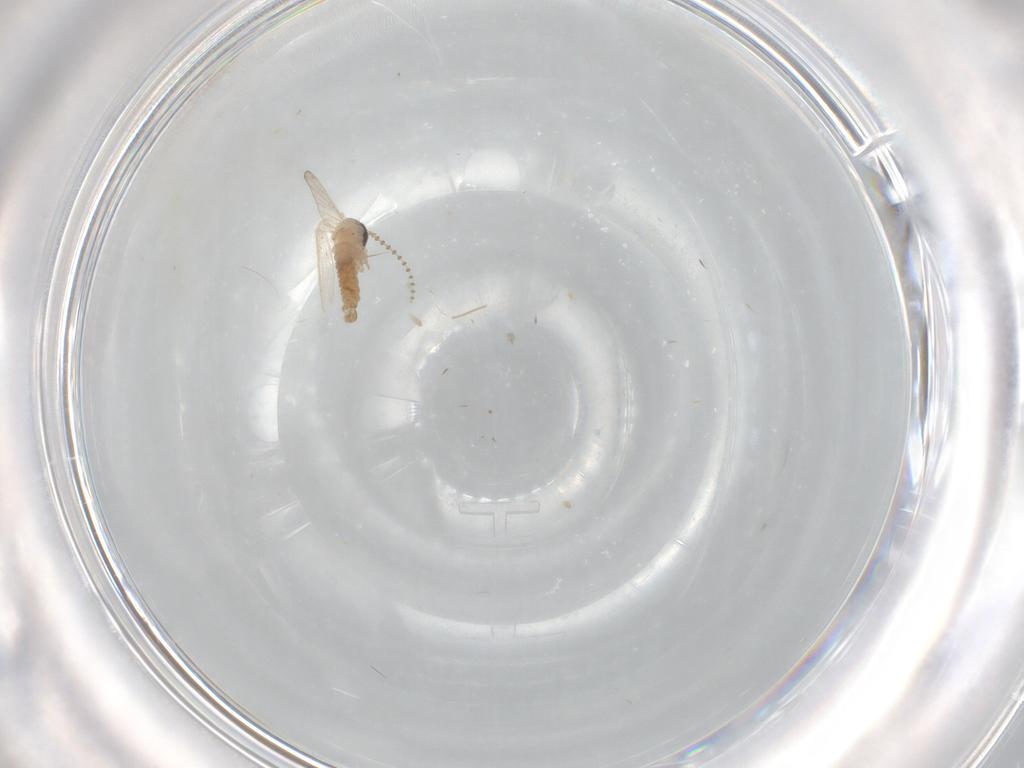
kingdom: Animalia
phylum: Arthropoda
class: Insecta
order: Diptera
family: Psychodidae
